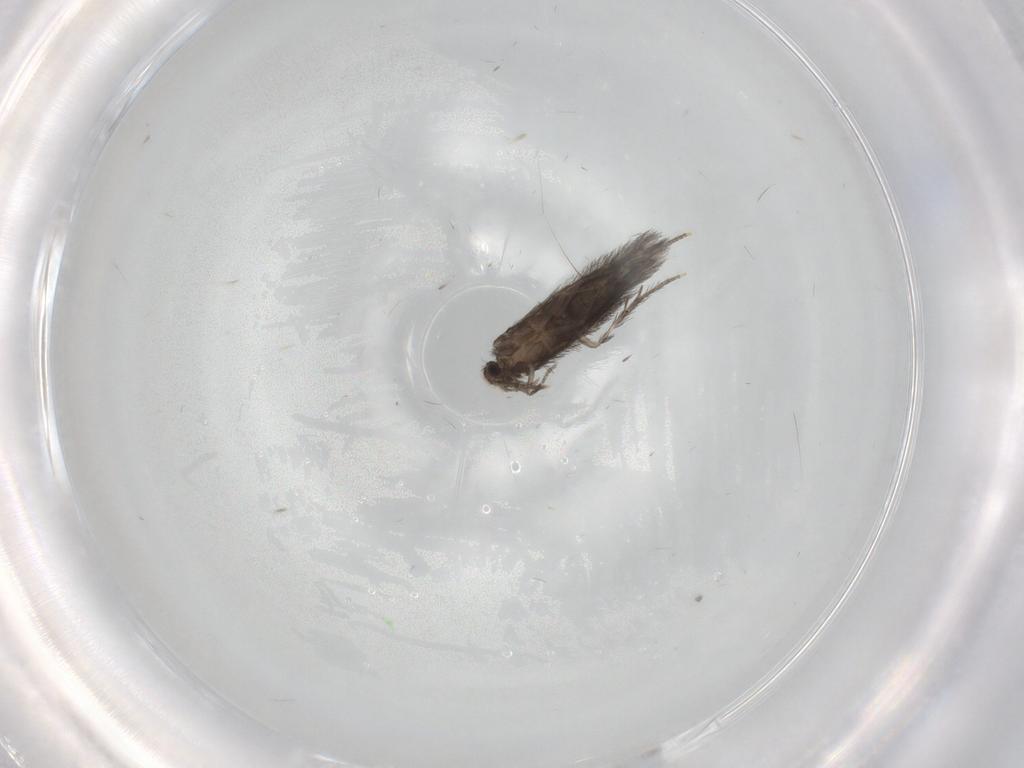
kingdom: Animalia
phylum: Arthropoda
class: Insecta
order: Trichoptera
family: Hydroptilidae
